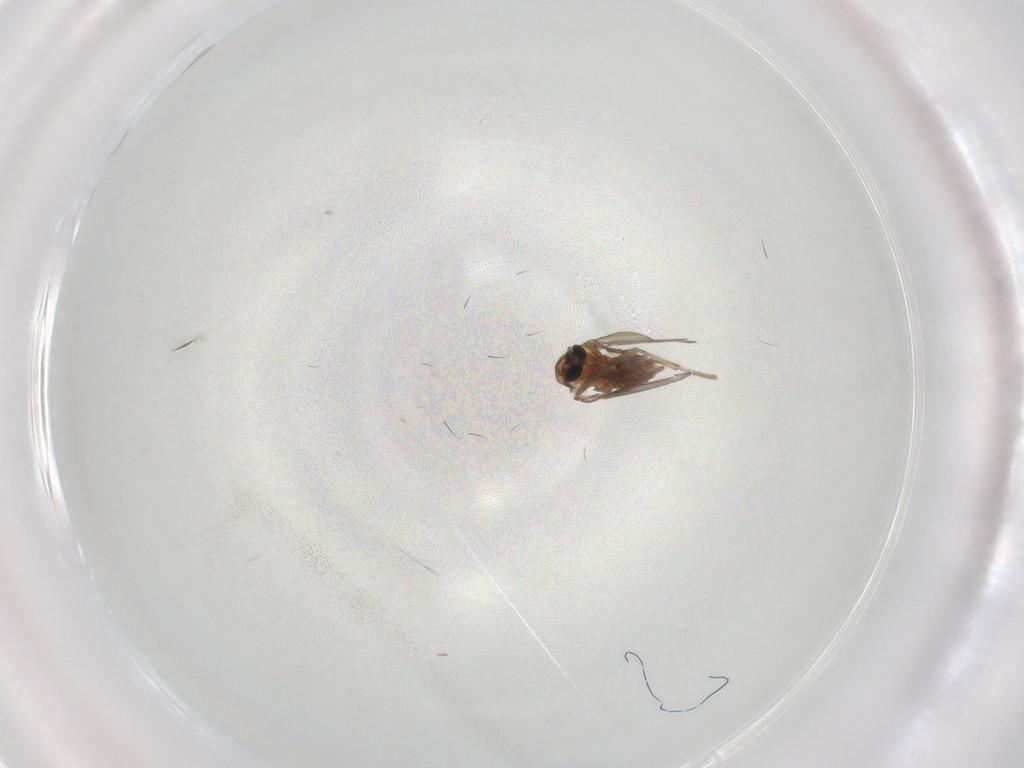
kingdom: Animalia
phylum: Arthropoda
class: Insecta
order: Diptera
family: Psychodidae
